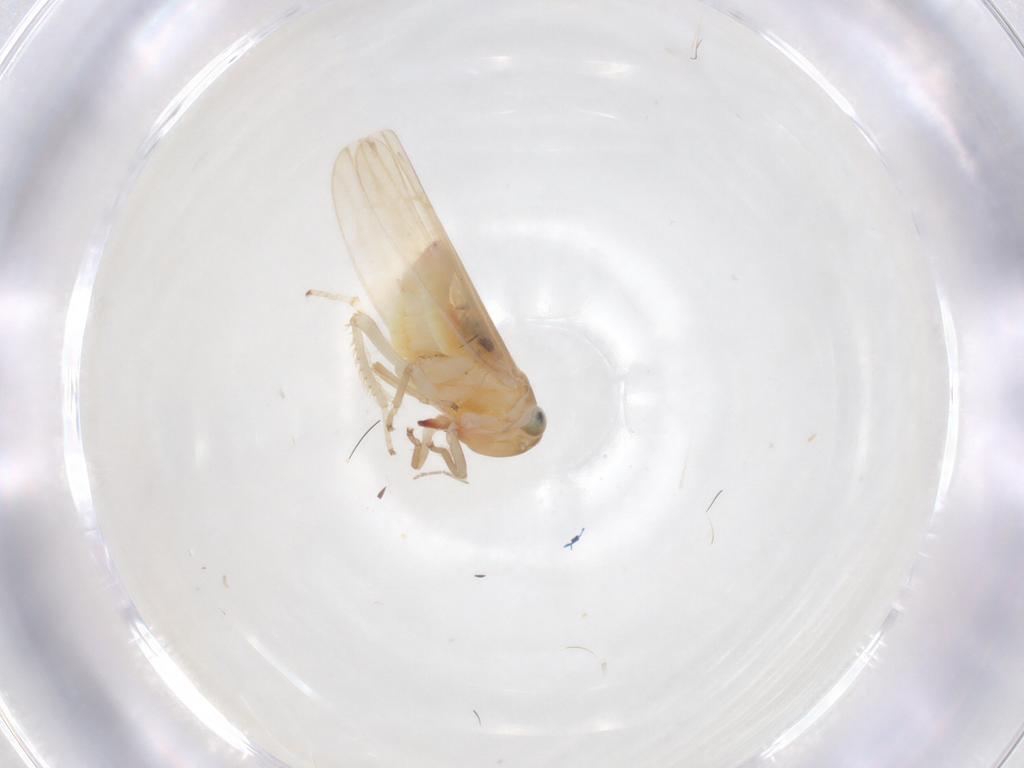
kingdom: Animalia
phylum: Arthropoda
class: Insecta
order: Hemiptera
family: Cicadellidae
